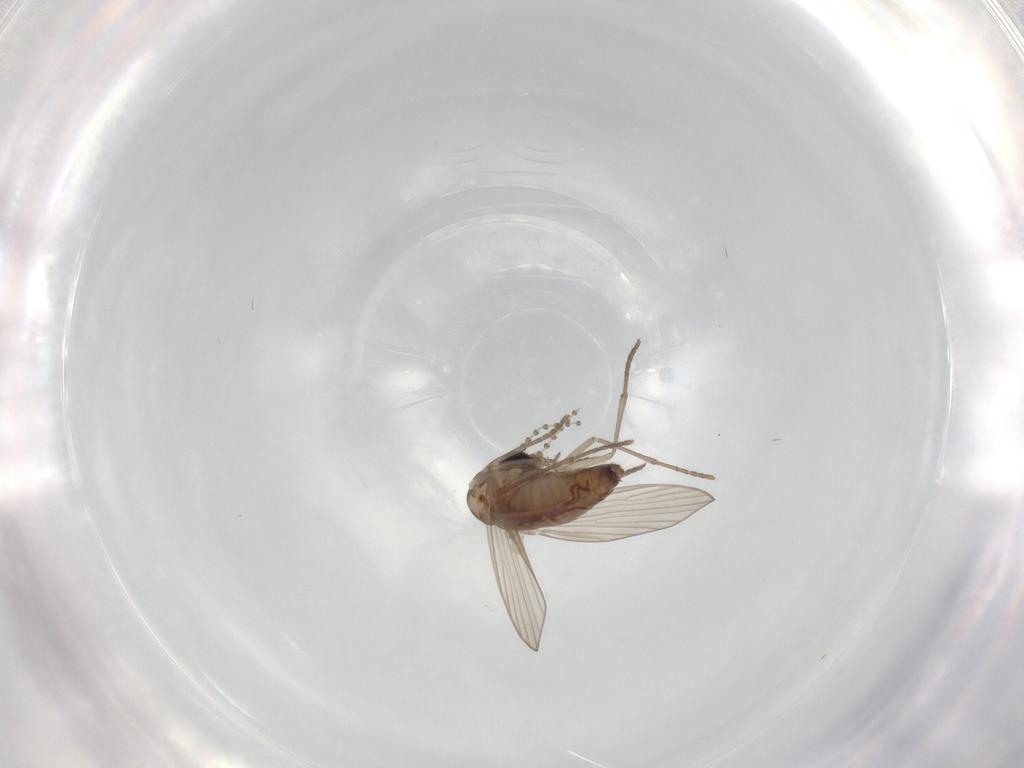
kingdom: Animalia
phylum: Arthropoda
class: Insecta
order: Diptera
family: Psychodidae
